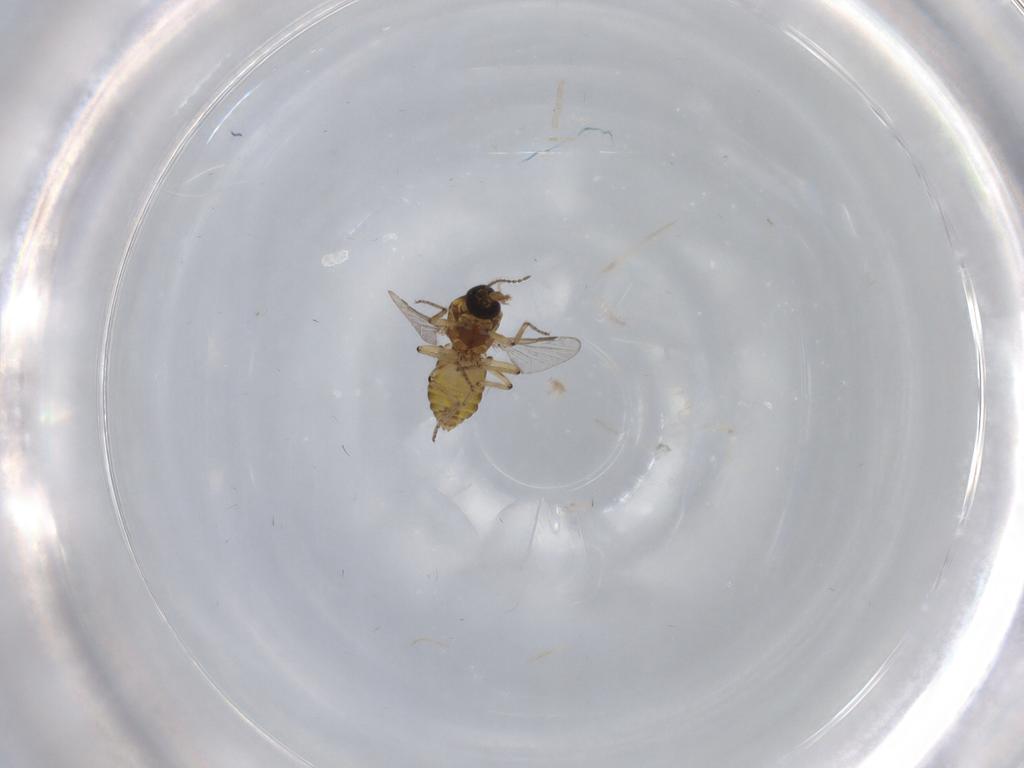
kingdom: Animalia
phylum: Arthropoda
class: Insecta
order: Diptera
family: Ceratopogonidae
